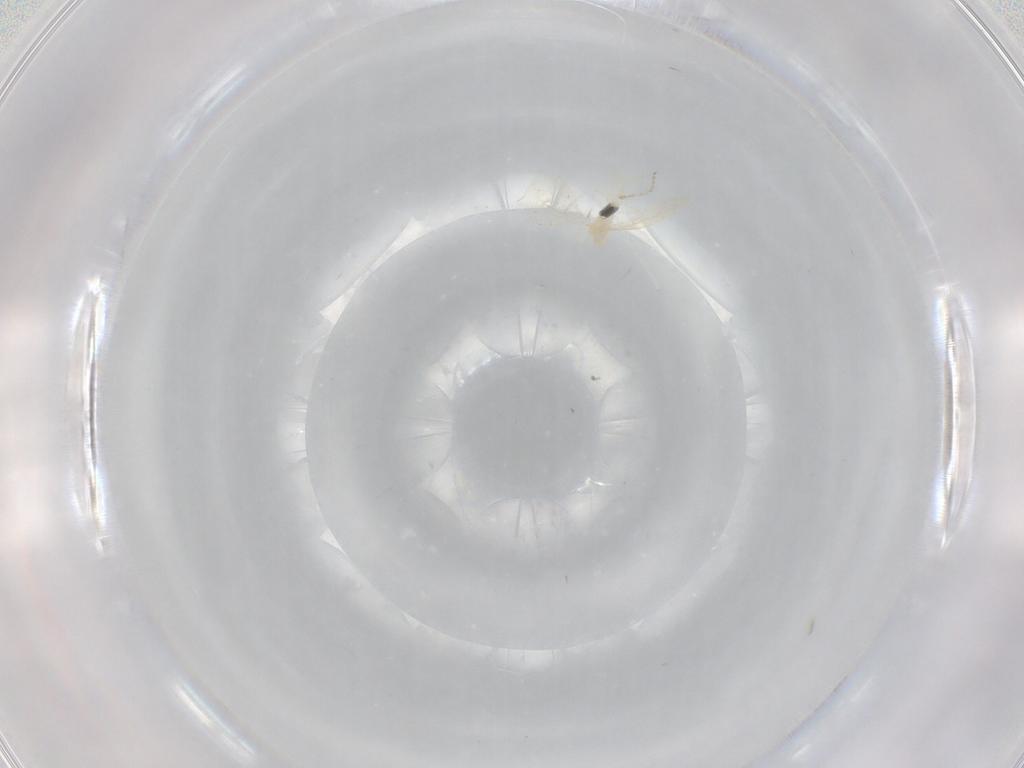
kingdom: Animalia
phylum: Arthropoda
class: Insecta
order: Diptera
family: Cecidomyiidae
